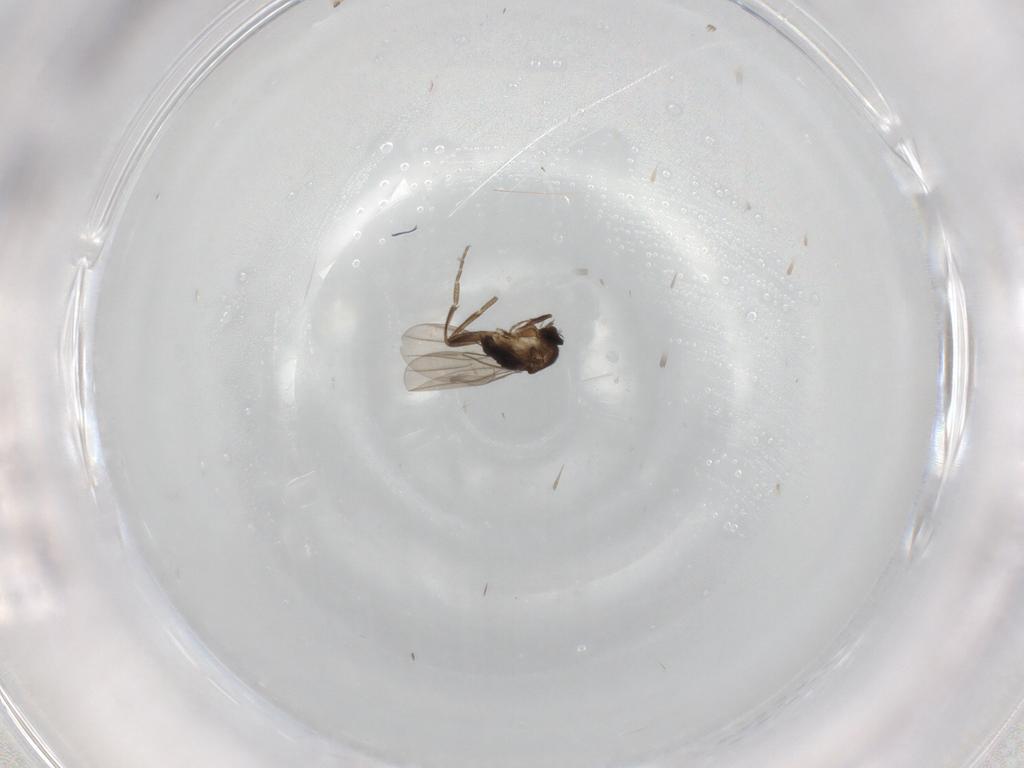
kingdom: Animalia
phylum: Arthropoda
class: Insecta
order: Diptera
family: Phoridae
